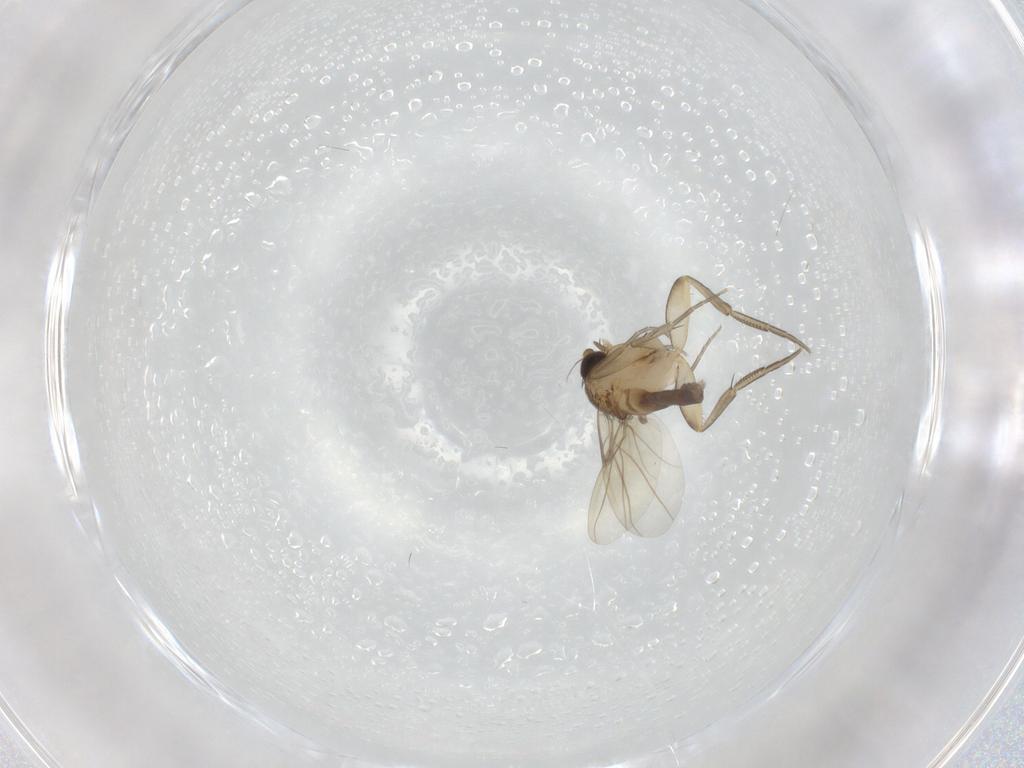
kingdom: Animalia
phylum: Arthropoda
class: Insecta
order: Diptera
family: Phoridae
